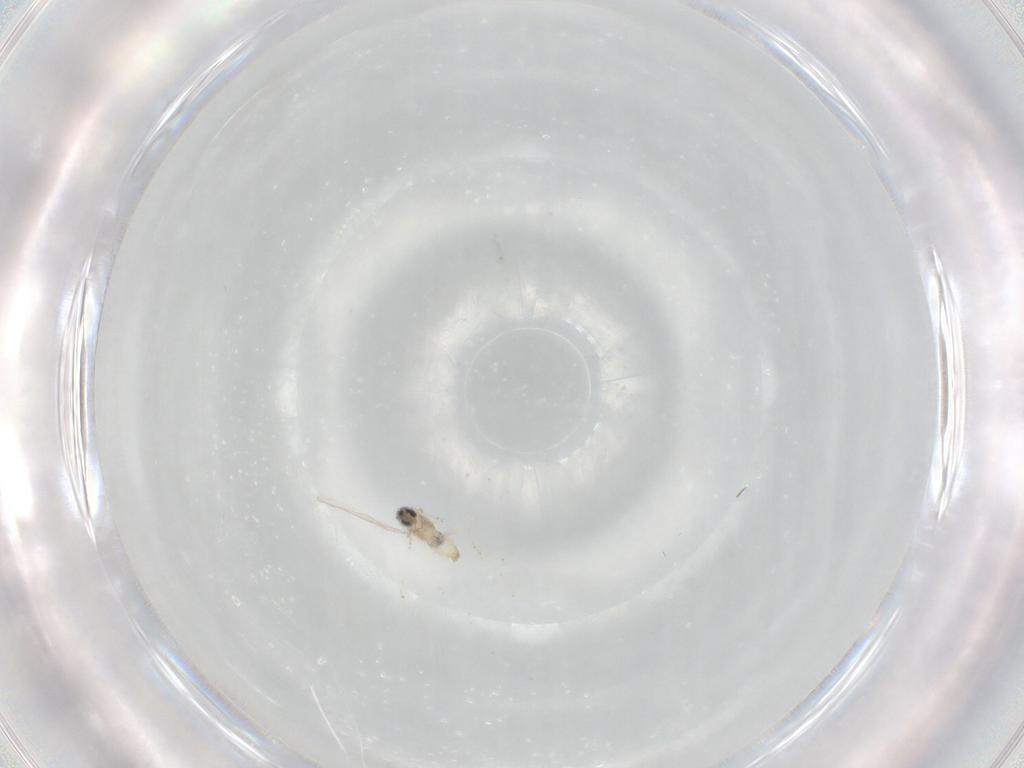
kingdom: Animalia
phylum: Arthropoda
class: Insecta
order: Diptera
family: Cecidomyiidae
